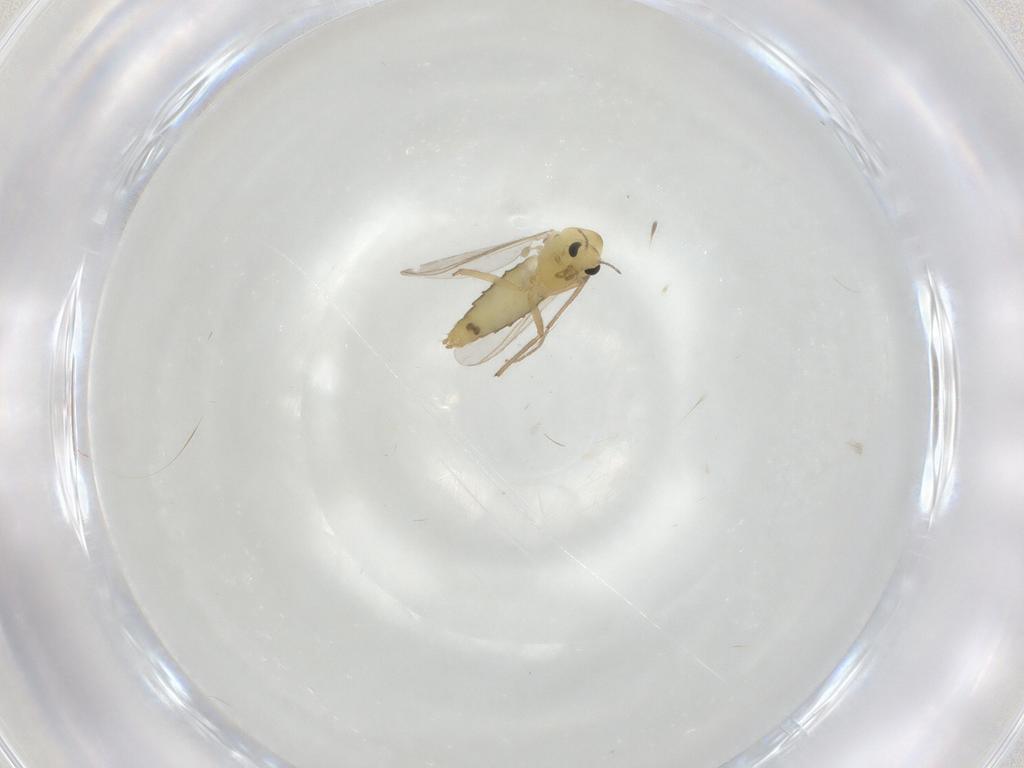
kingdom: Animalia
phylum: Arthropoda
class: Insecta
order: Diptera
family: Chironomidae
